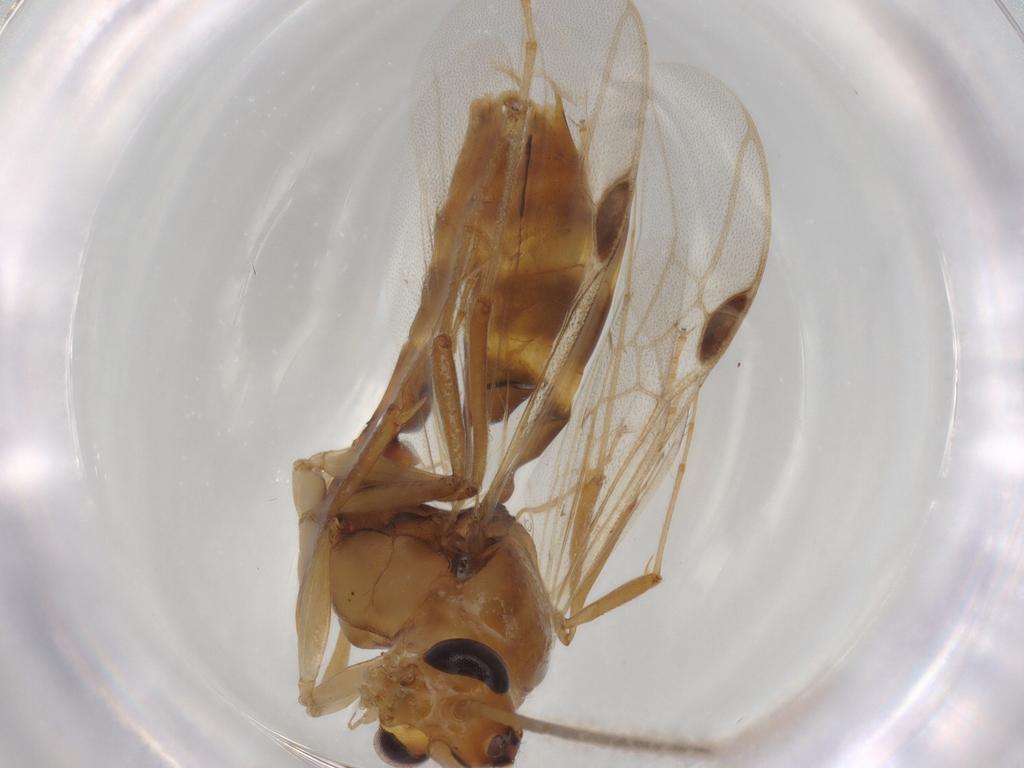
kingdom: Animalia
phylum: Arthropoda
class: Insecta
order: Hymenoptera
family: Formicidae
